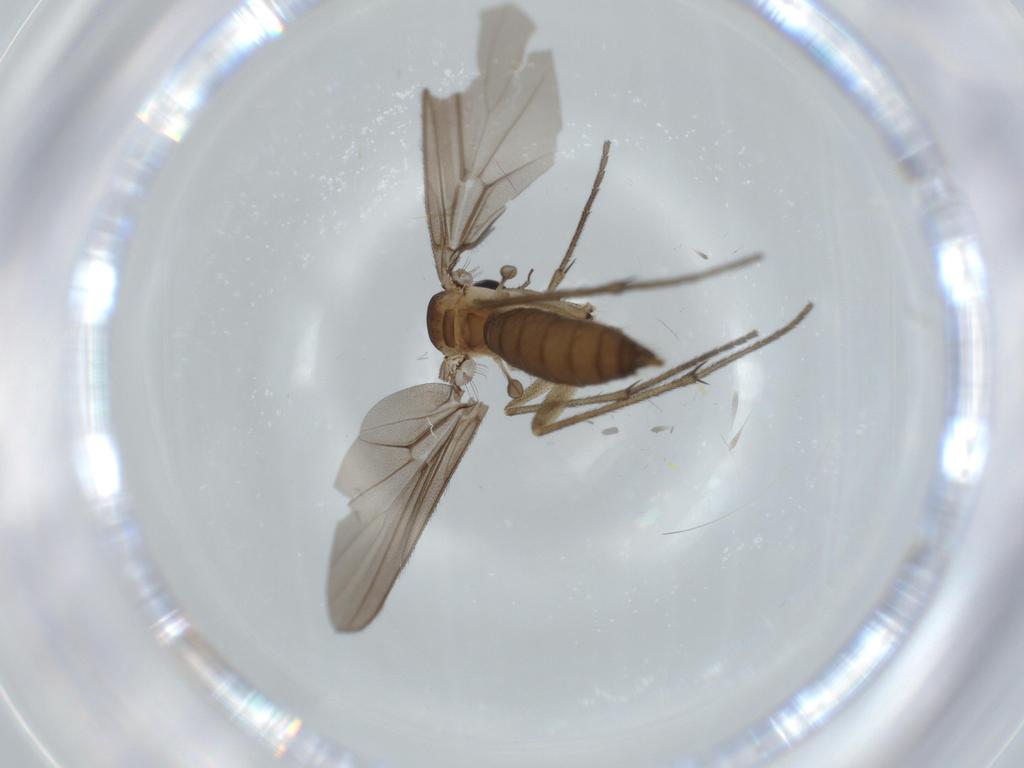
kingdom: Animalia
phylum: Arthropoda
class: Insecta
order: Diptera
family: Diadocidiidae
